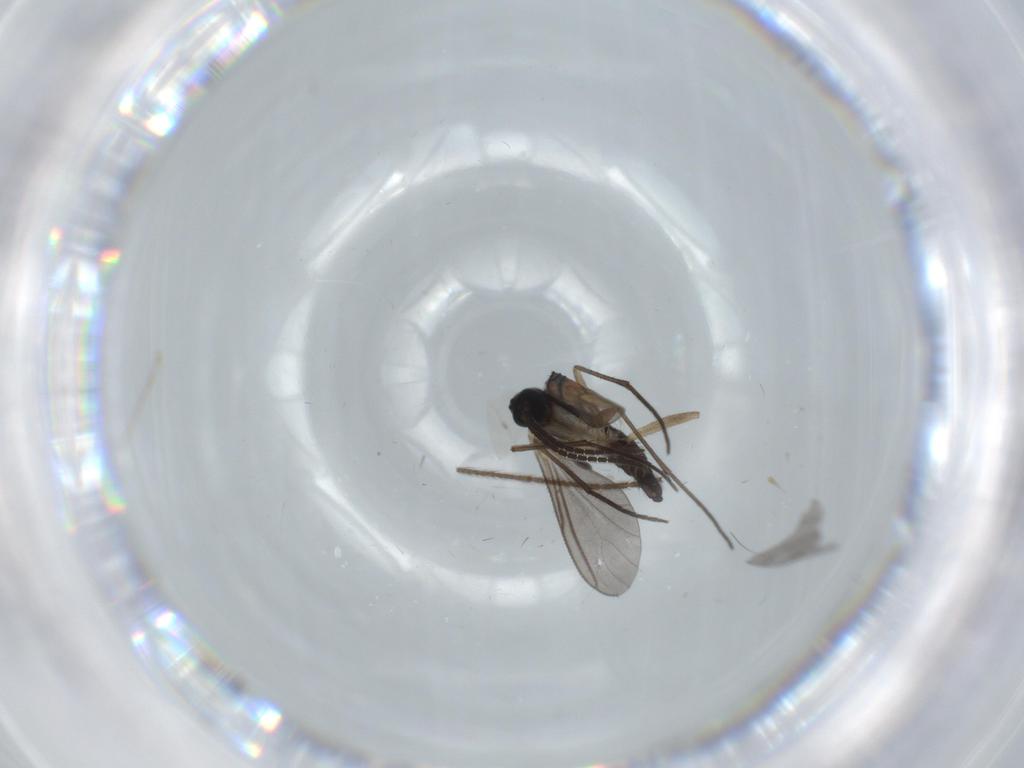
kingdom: Animalia
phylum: Arthropoda
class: Insecta
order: Diptera
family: Sciaridae
